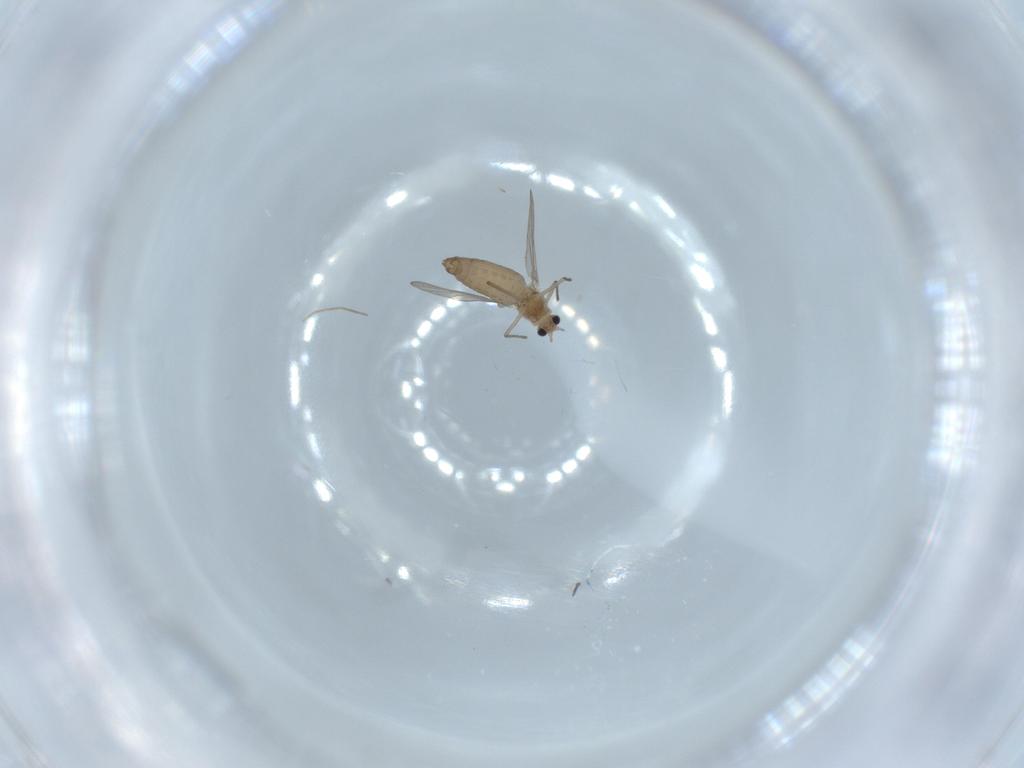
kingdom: Animalia
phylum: Arthropoda
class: Insecta
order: Diptera
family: Chironomidae
